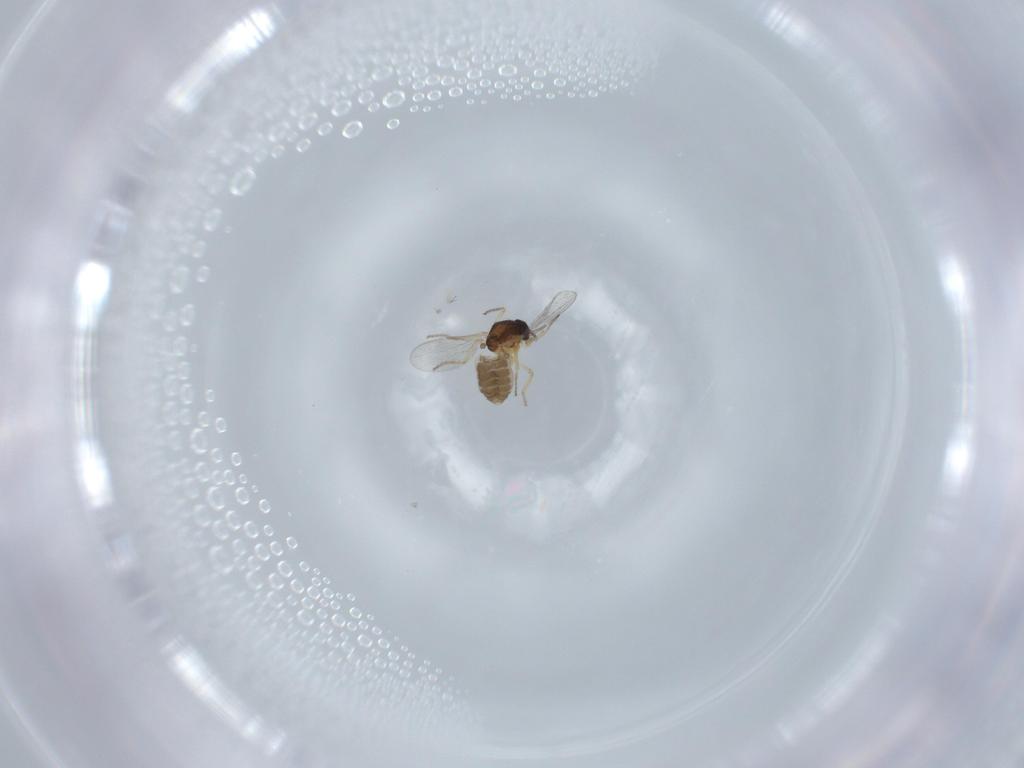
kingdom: Animalia
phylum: Arthropoda
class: Insecta
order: Diptera
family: Ceratopogonidae
